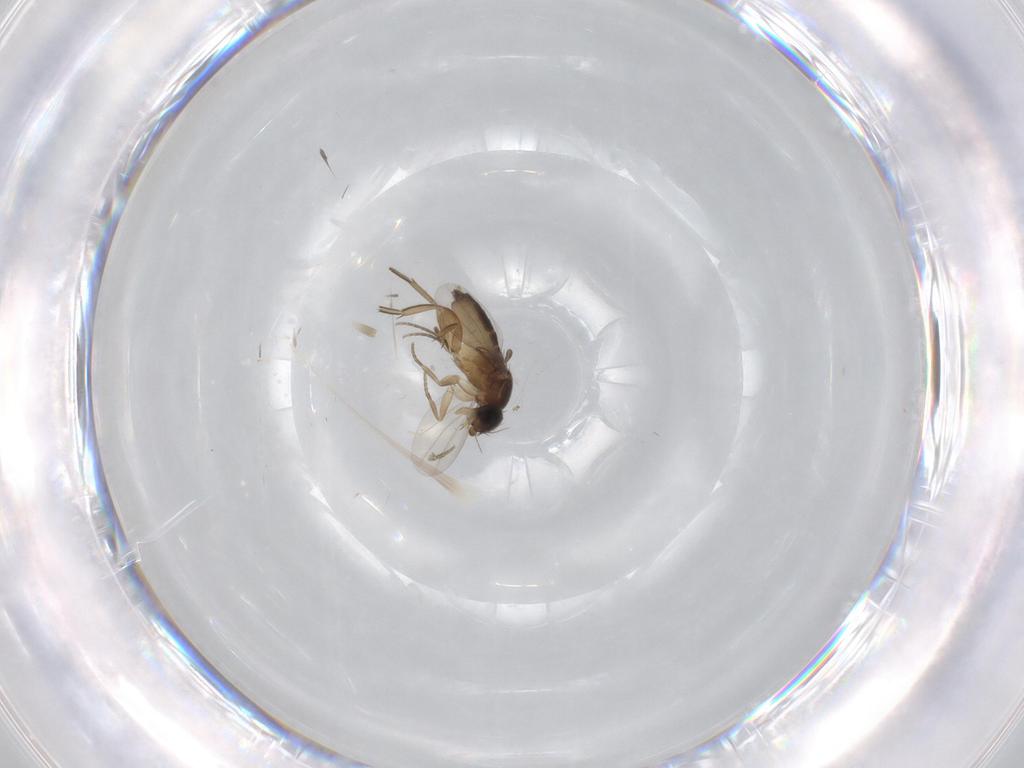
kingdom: Animalia
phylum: Arthropoda
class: Insecta
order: Diptera
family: Phoridae
